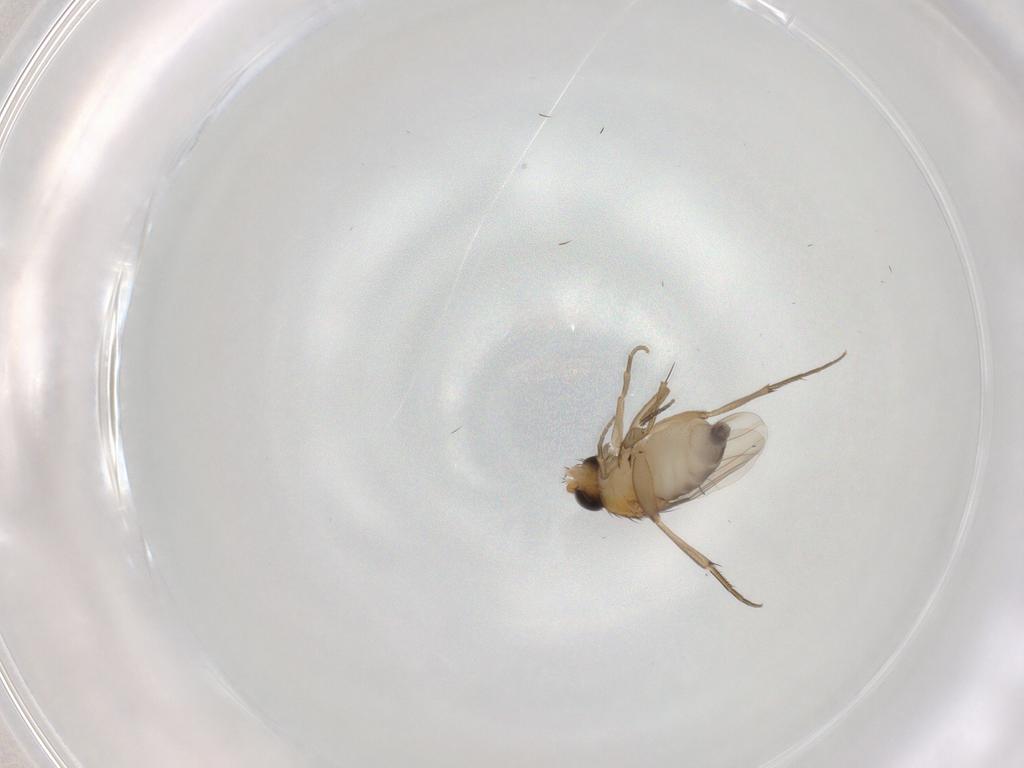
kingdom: Animalia
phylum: Arthropoda
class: Insecta
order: Diptera
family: Phoridae
